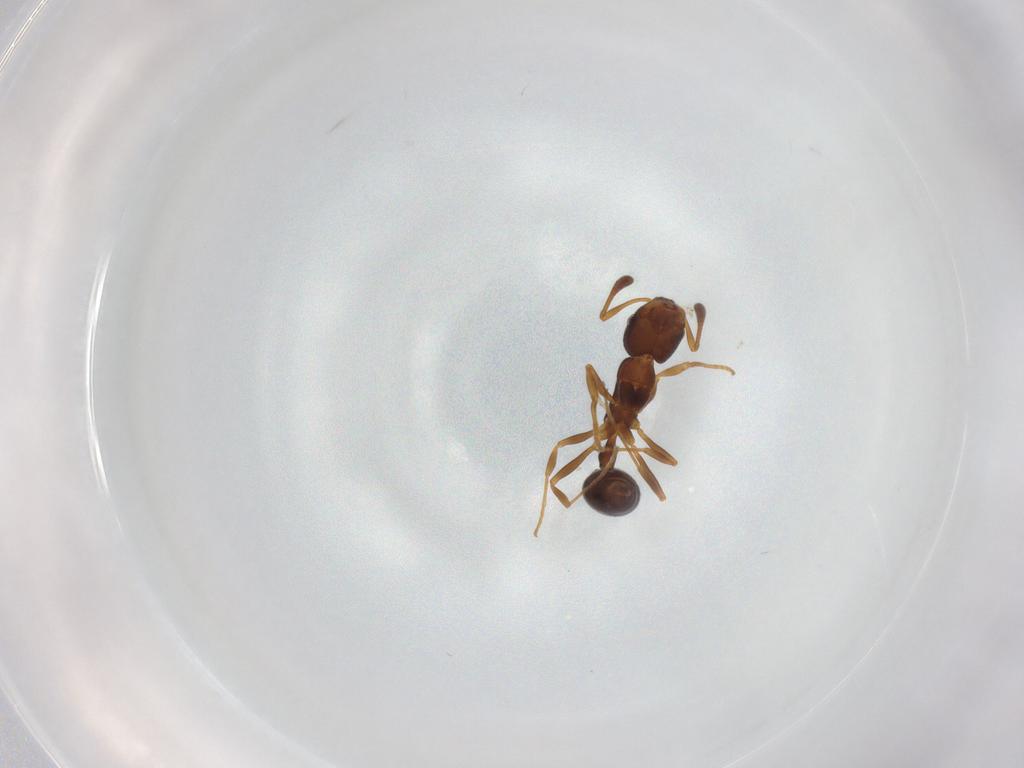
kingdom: Animalia
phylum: Arthropoda
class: Insecta
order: Hymenoptera
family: Formicidae
